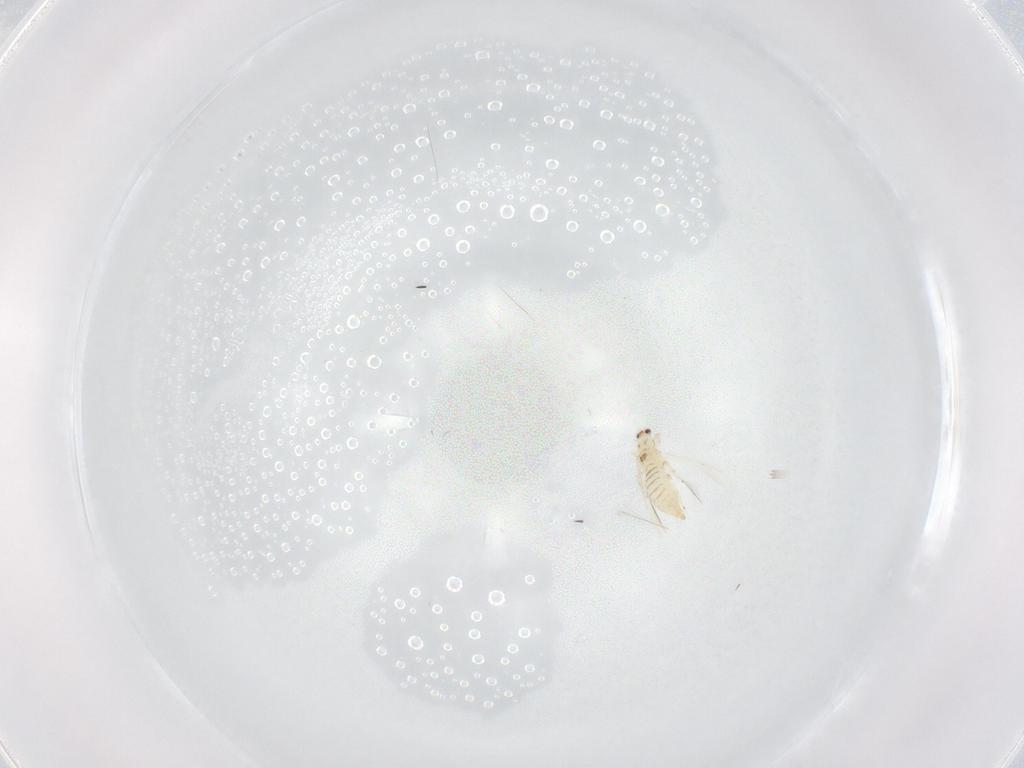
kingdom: Animalia
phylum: Arthropoda
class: Insecta
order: Thysanoptera
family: Thripidae
